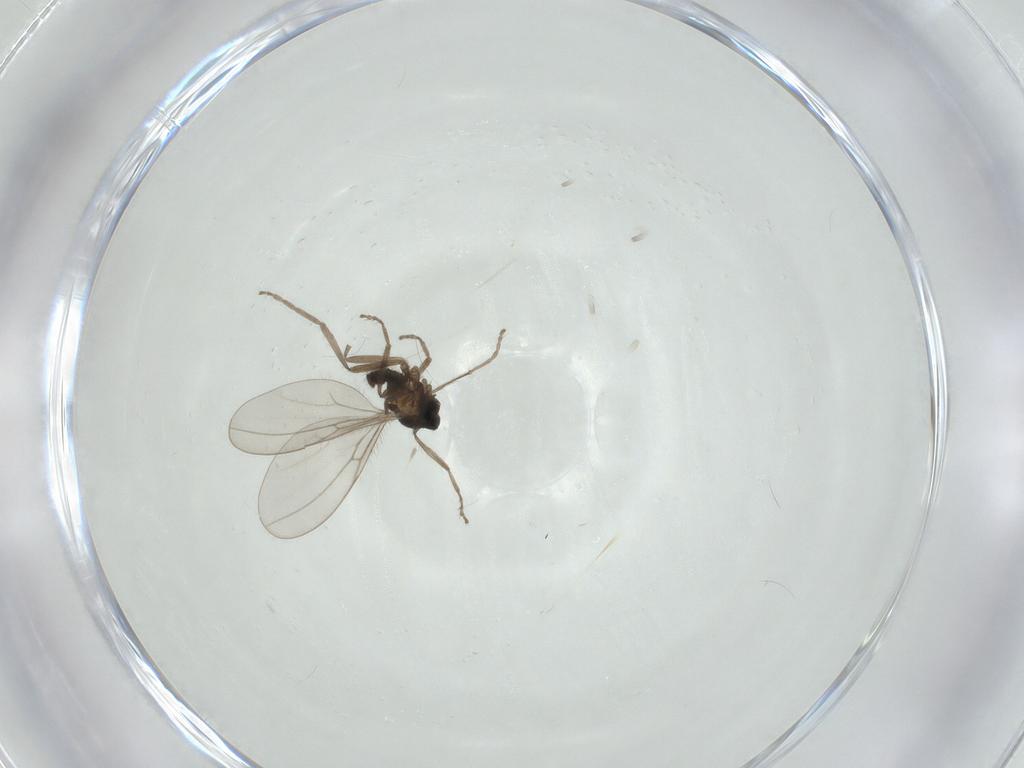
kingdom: Animalia
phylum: Arthropoda
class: Insecta
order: Diptera
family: Ceratopogonidae
